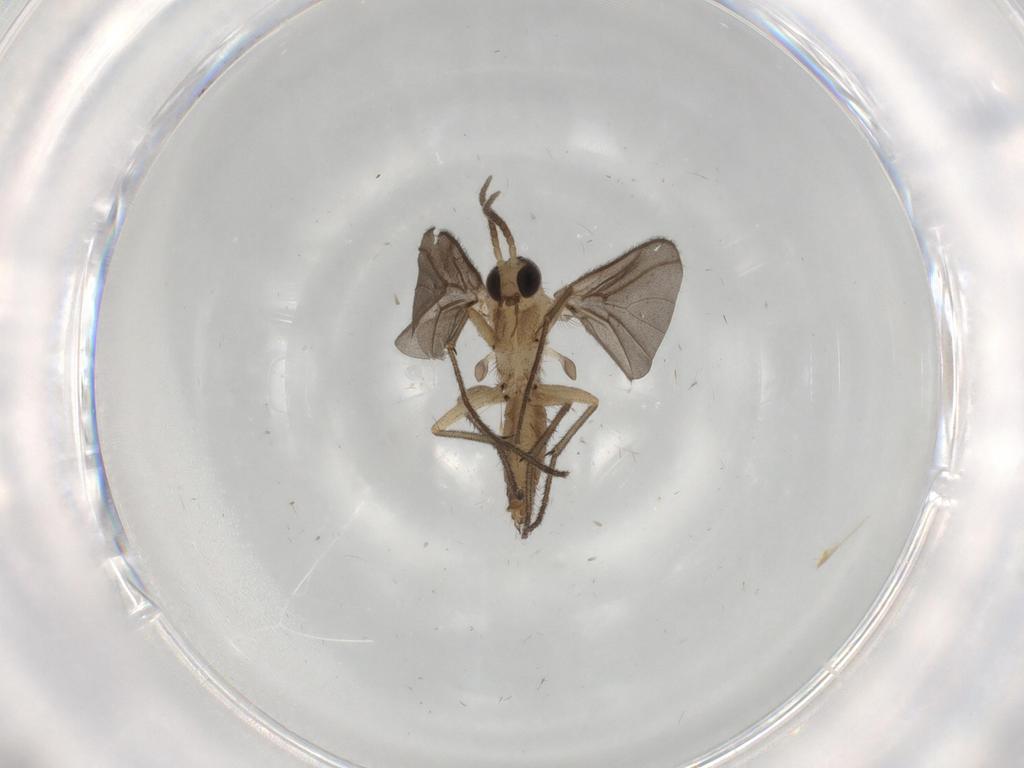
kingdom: Animalia
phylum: Arthropoda
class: Insecta
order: Diptera
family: Diadocidiidae
